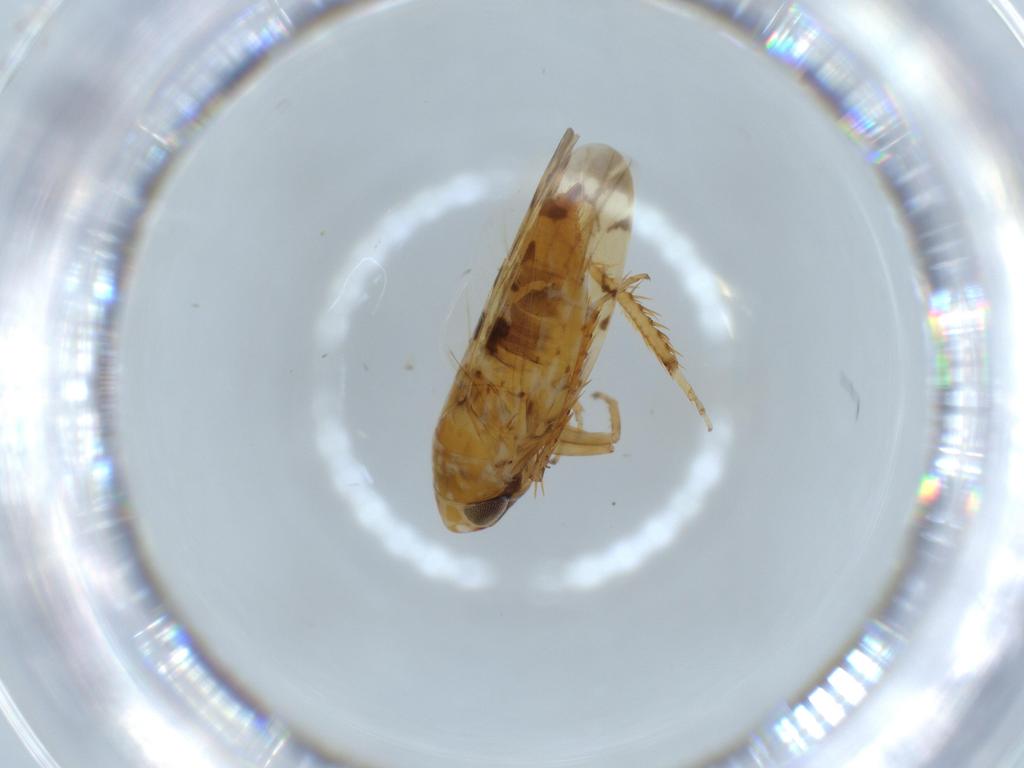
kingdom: Animalia
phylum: Arthropoda
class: Insecta
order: Hemiptera
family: Cicadellidae
